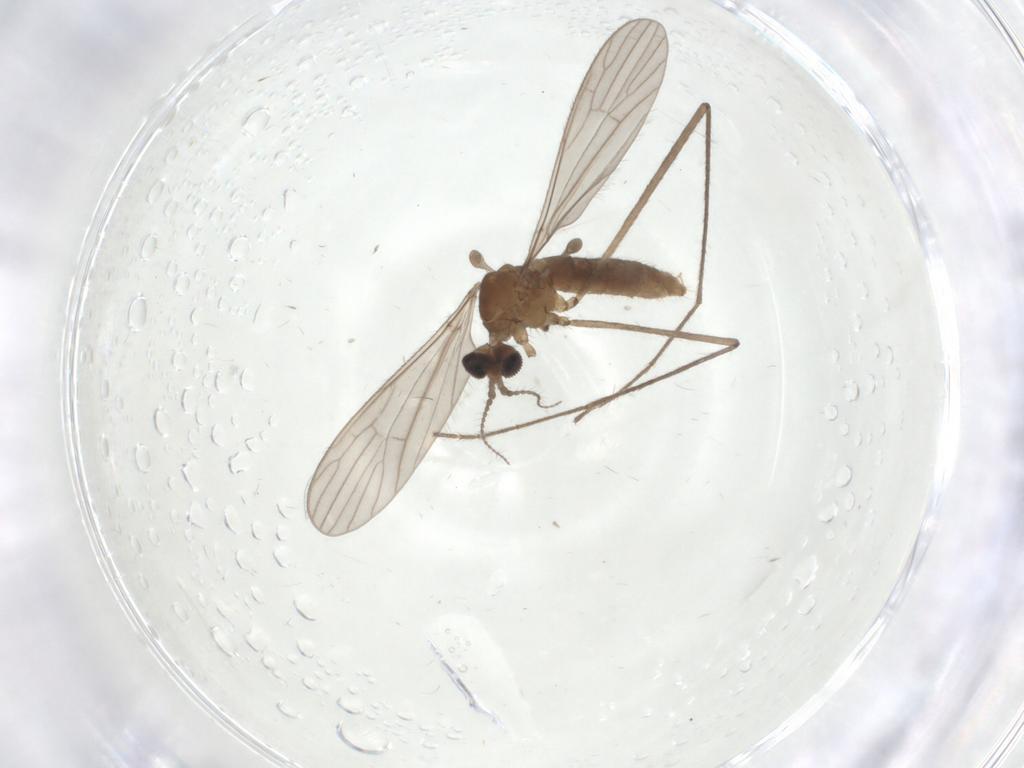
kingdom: Animalia
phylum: Arthropoda
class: Insecta
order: Diptera
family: Limoniidae
